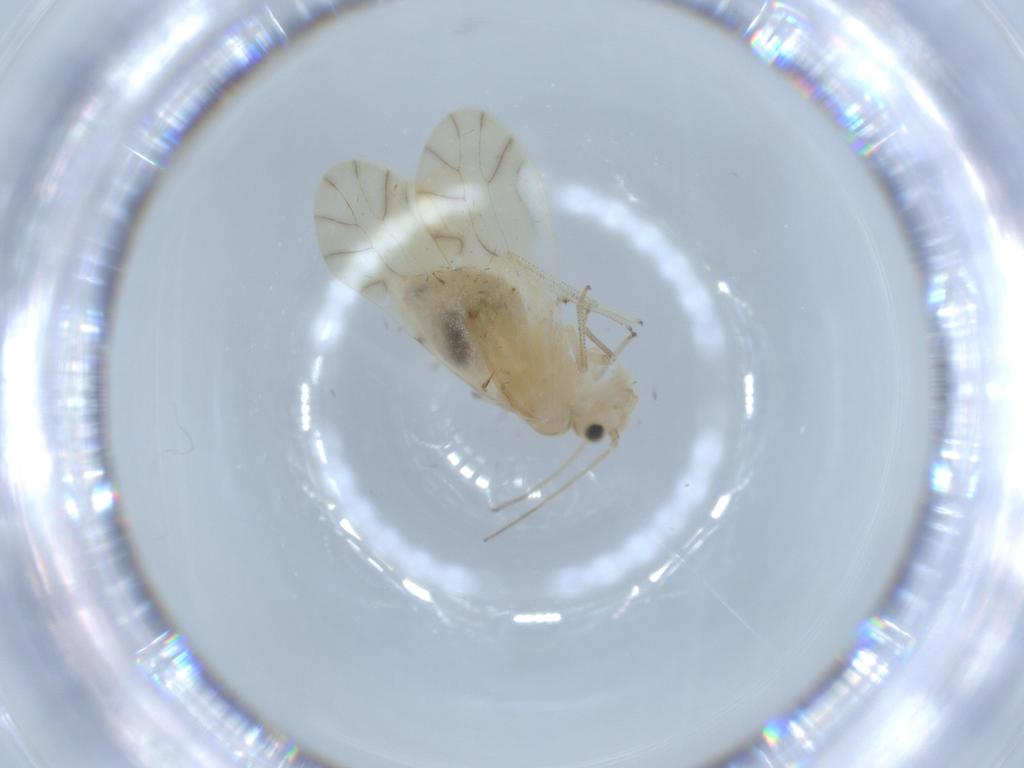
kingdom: Animalia
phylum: Arthropoda
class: Insecta
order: Psocodea
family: Caeciliusidae
